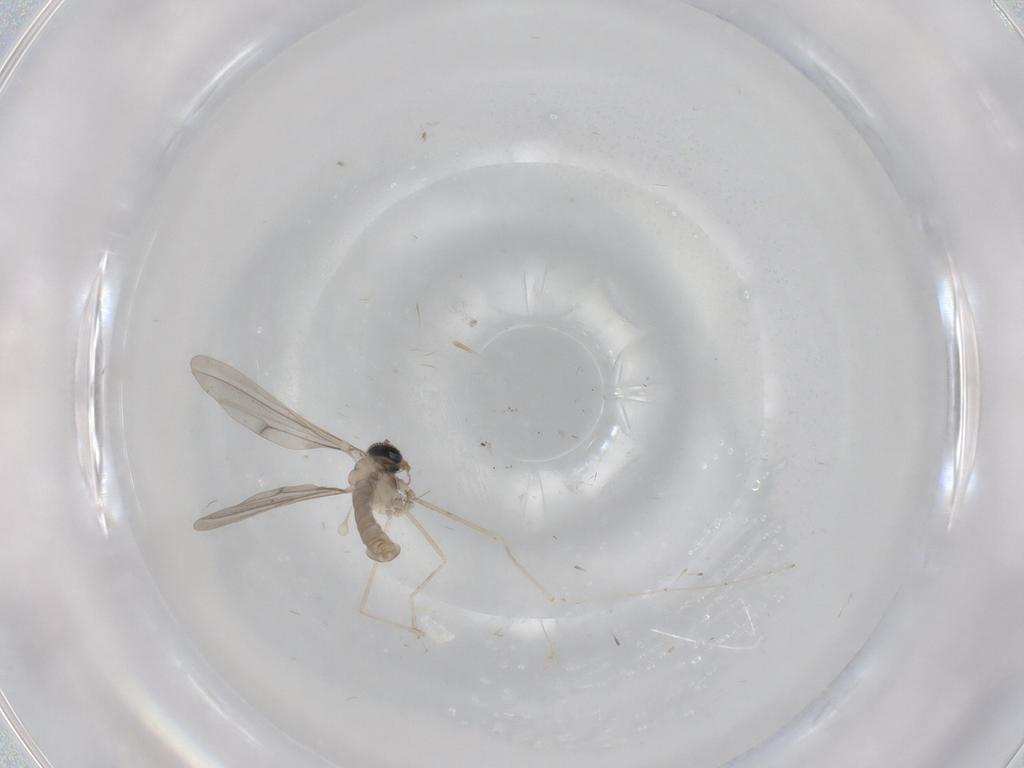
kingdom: Animalia
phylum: Arthropoda
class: Insecta
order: Diptera
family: Cecidomyiidae
